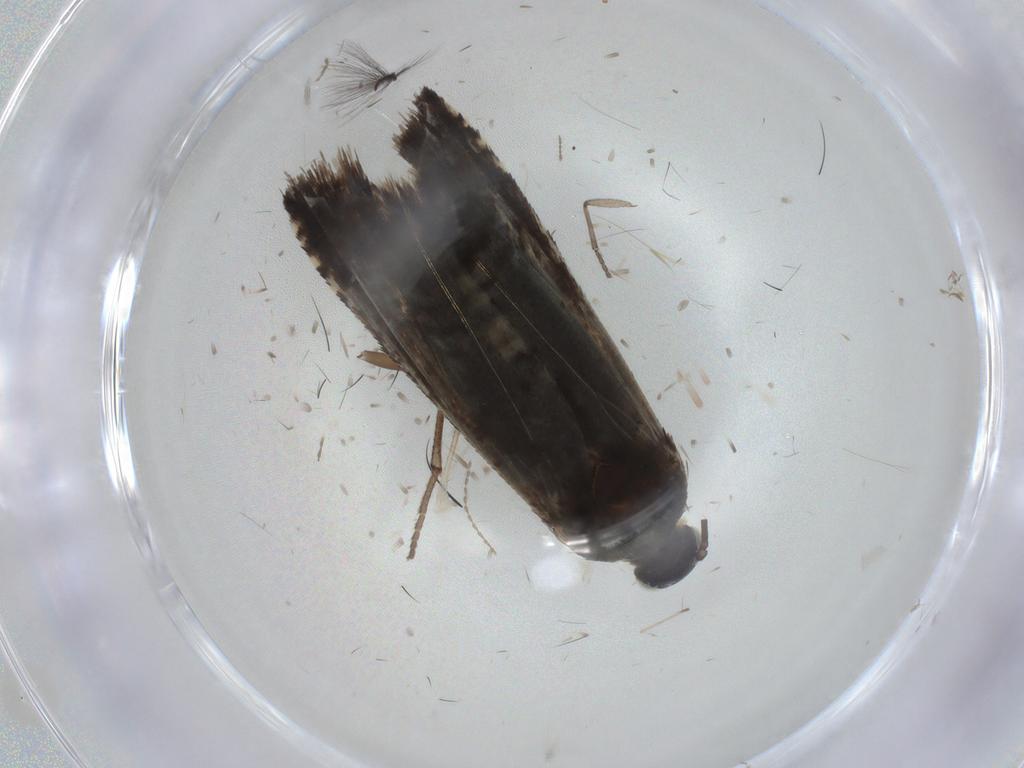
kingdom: Animalia
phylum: Arthropoda
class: Insecta
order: Lepidoptera
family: Tortricidae
